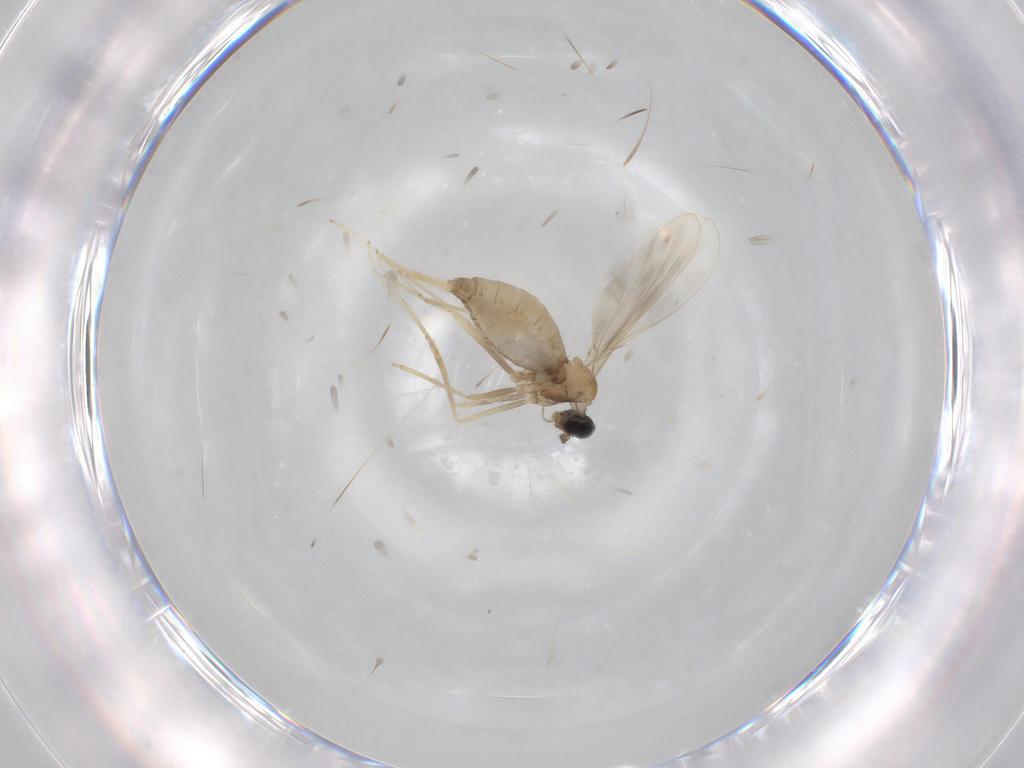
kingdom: Animalia
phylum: Arthropoda
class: Insecta
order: Diptera
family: Cecidomyiidae
